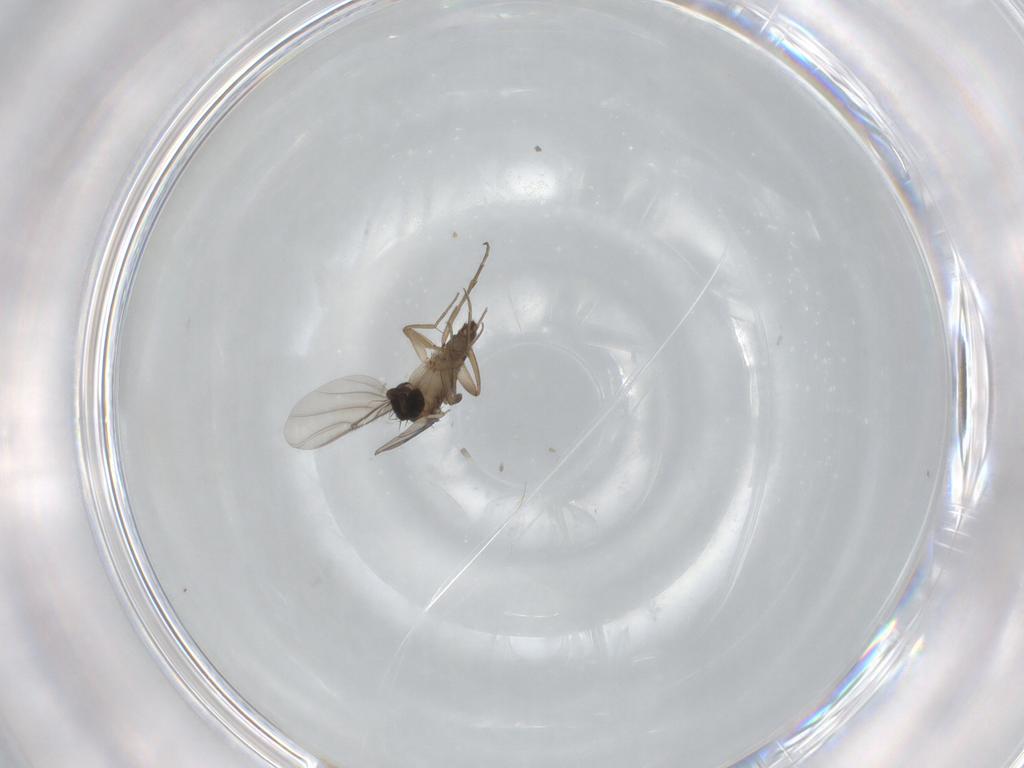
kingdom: Animalia
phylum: Arthropoda
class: Insecta
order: Diptera
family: Phoridae
